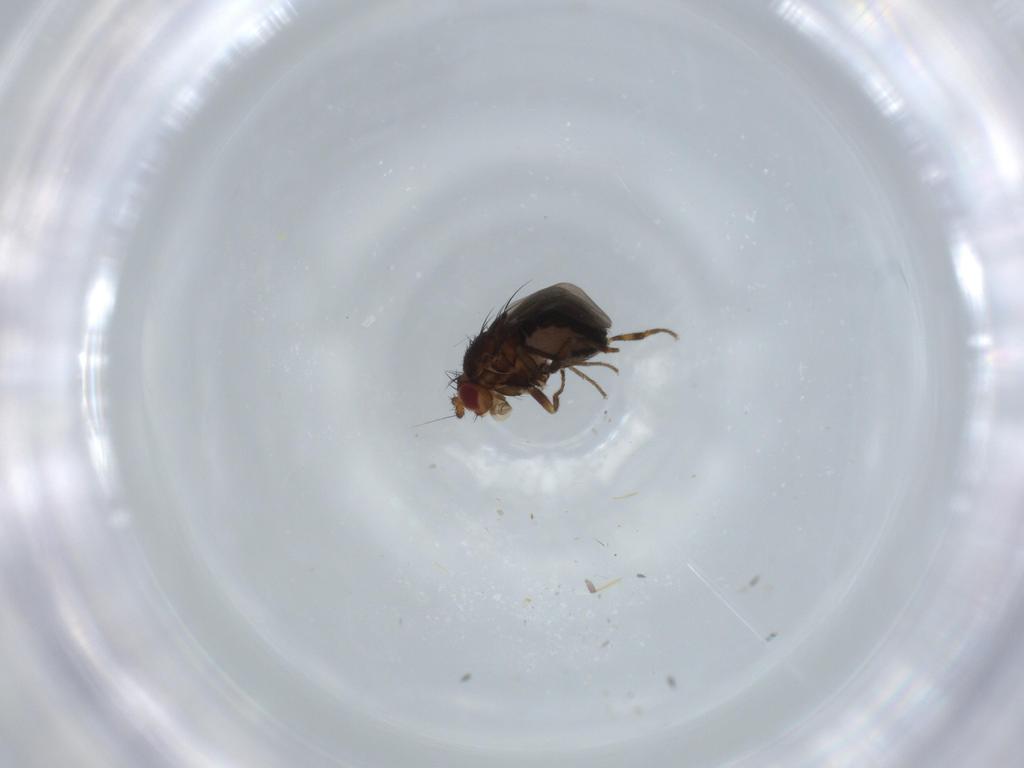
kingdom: Animalia
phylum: Arthropoda
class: Insecta
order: Diptera
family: Sphaeroceridae
